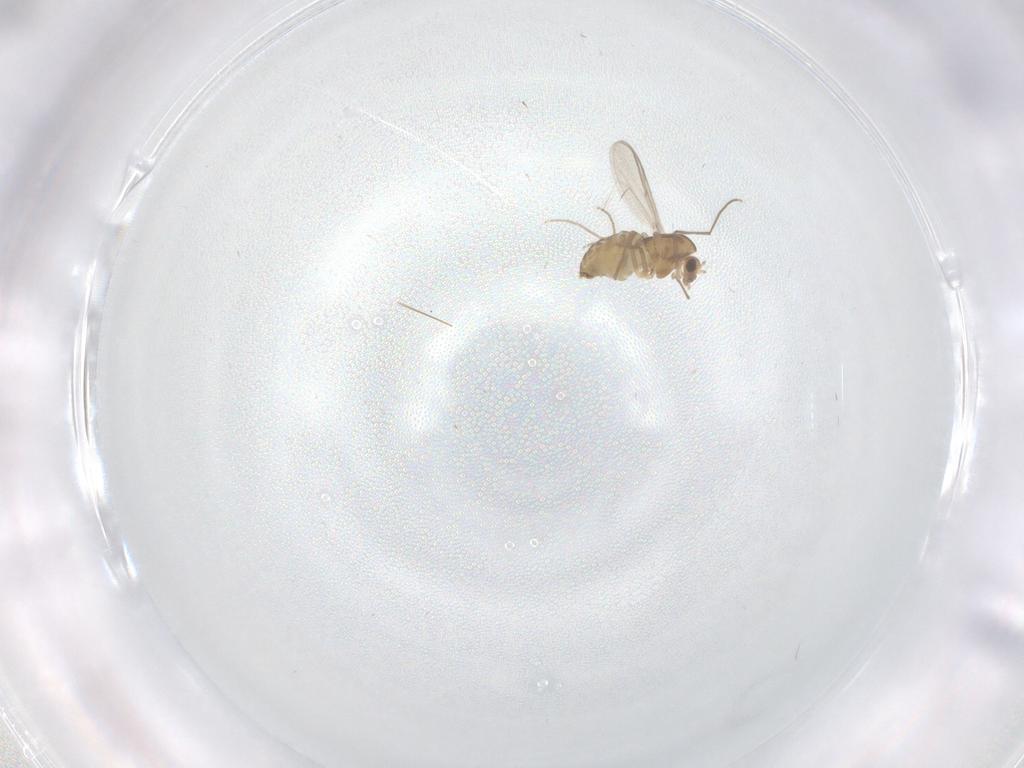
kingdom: Animalia
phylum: Arthropoda
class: Insecta
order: Diptera
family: Chironomidae
